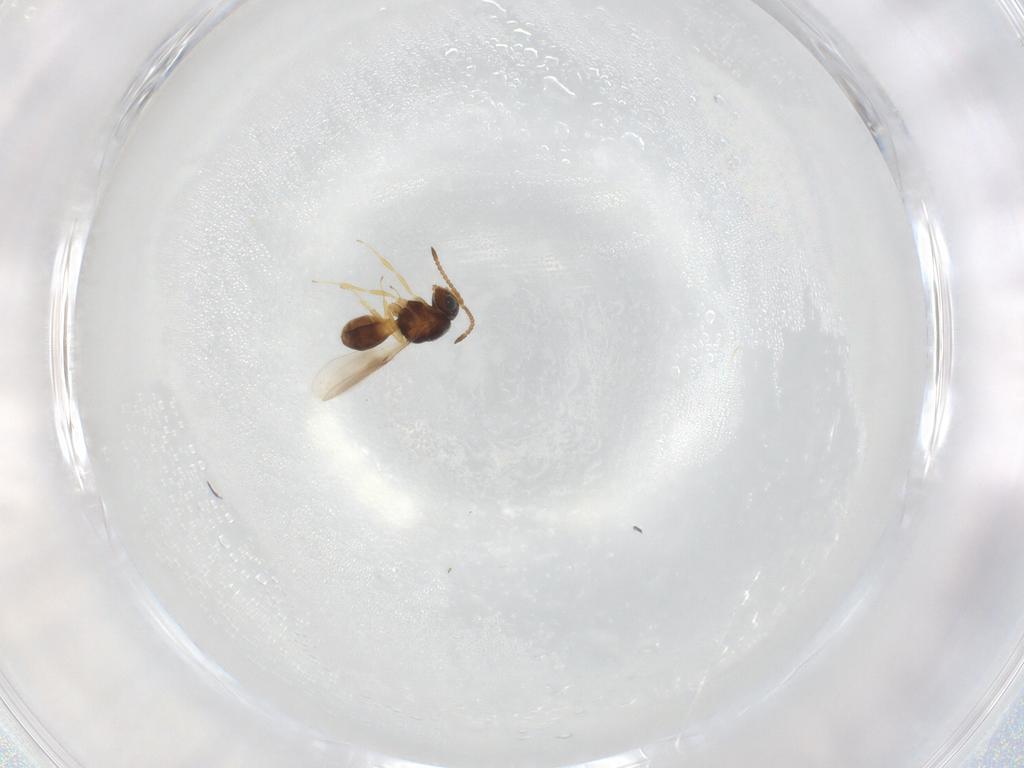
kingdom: Animalia
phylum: Arthropoda
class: Insecta
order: Hymenoptera
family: Scelionidae
